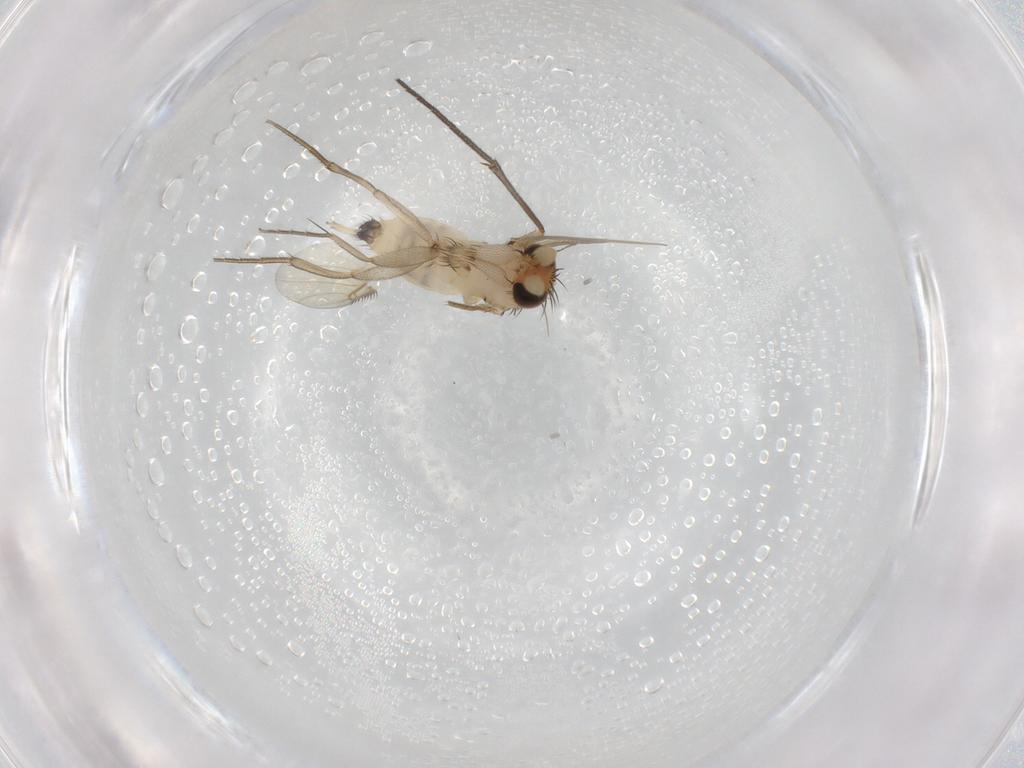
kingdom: Animalia
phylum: Arthropoda
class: Insecta
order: Diptera
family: Phoridae
